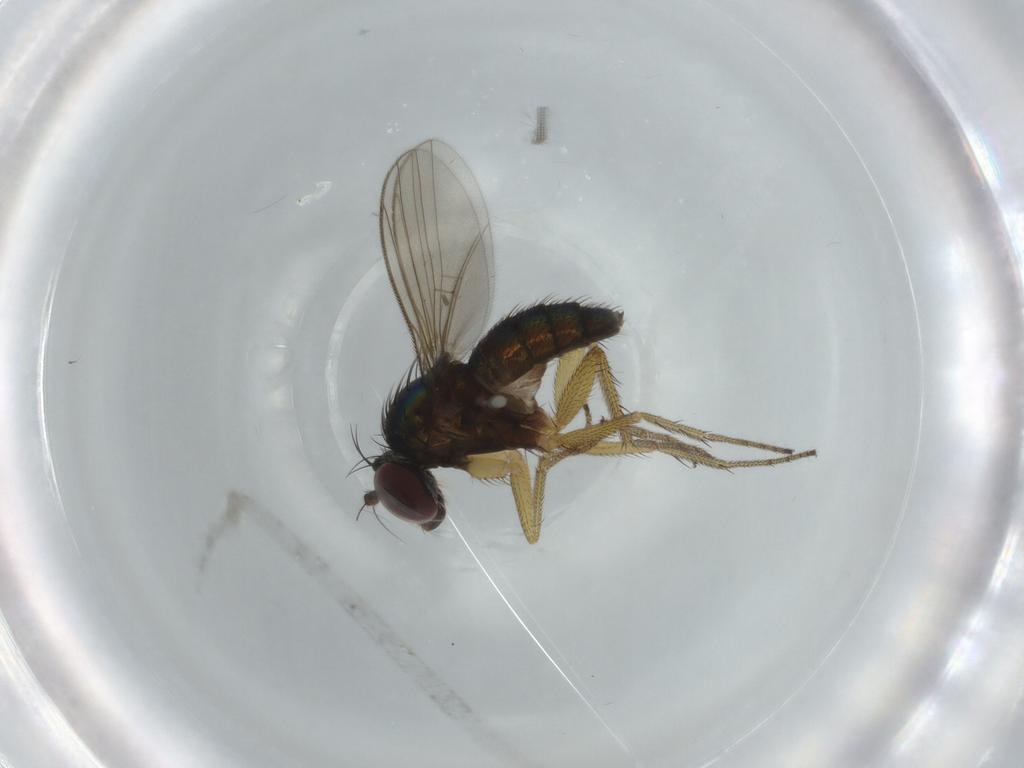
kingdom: Animalia
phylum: Arthropoda
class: Insecta
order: Diptera
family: Dolichopodidae
